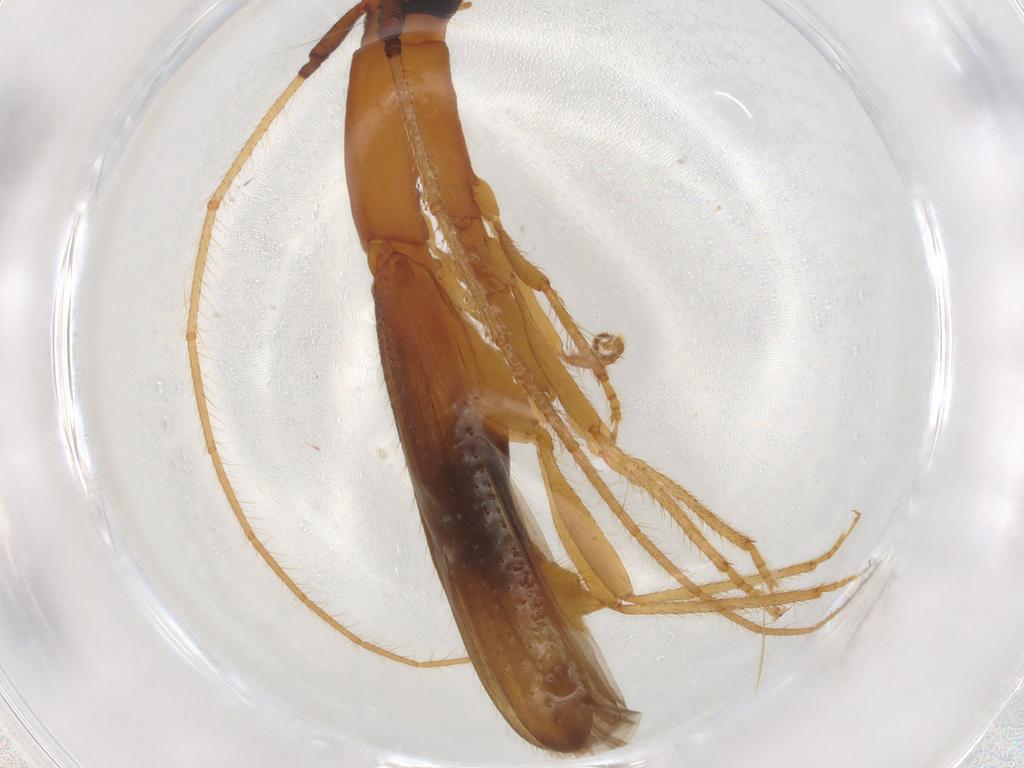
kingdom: Animalia
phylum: Arthropoda
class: Insecta
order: Coleoptera
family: Cerambycidae
